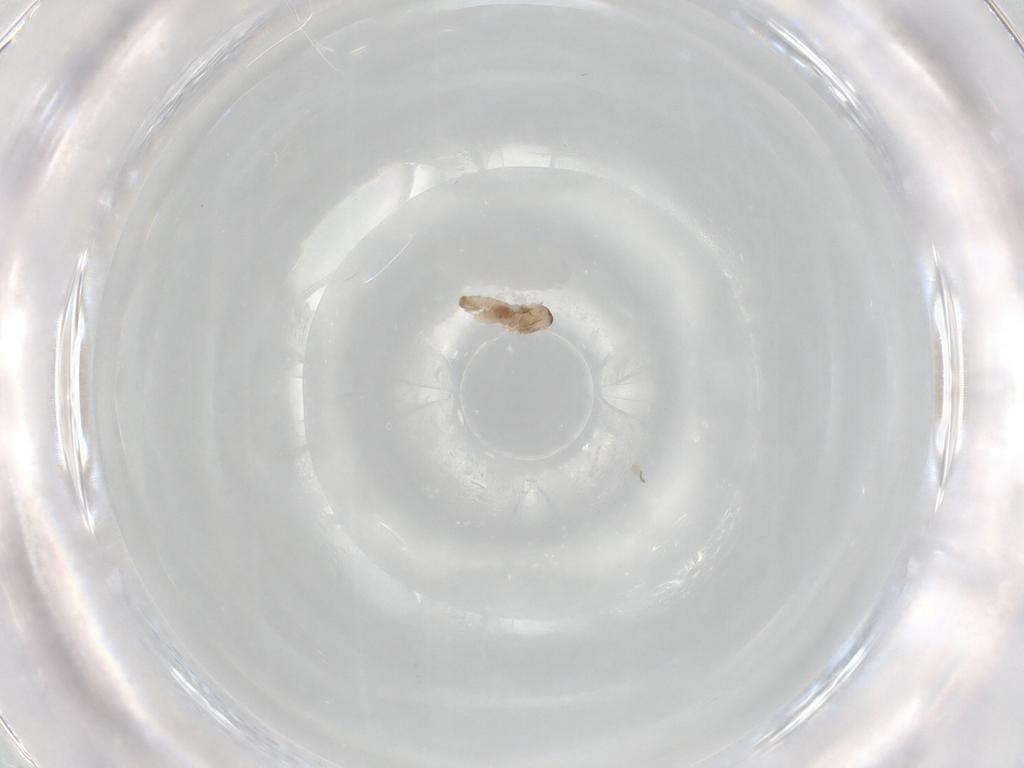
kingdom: Animalia
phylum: Arthropoda
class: Insecta
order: Diptera
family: Cecidomyiidae
